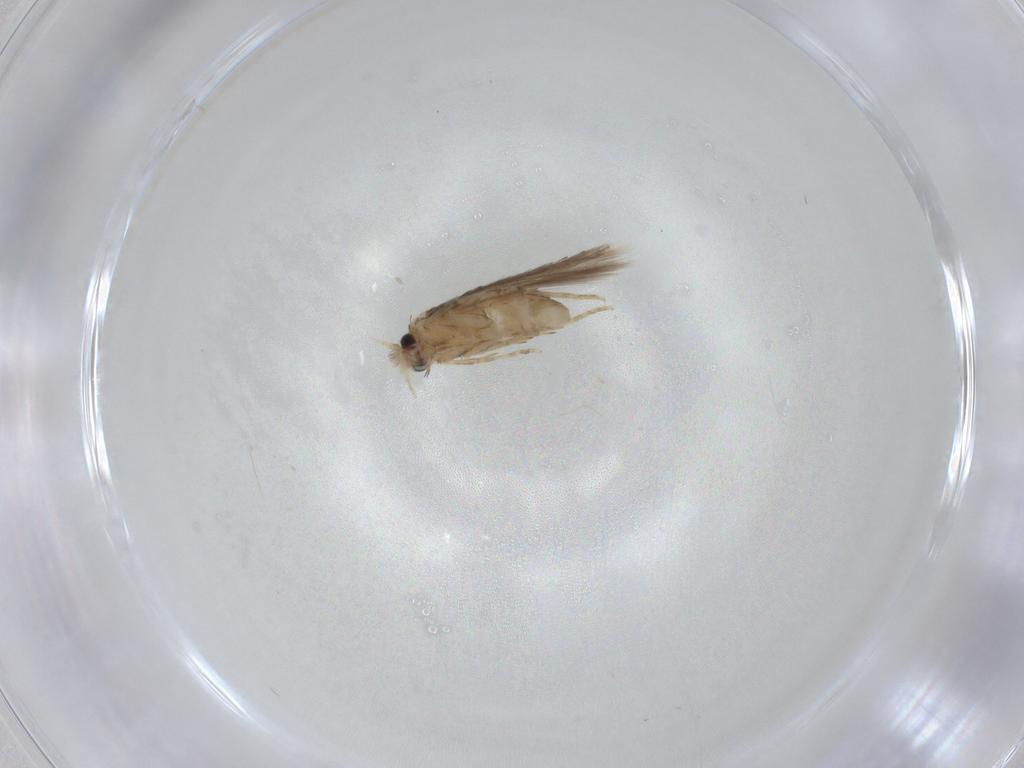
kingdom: Animalia
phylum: Arthropoda
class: Insecta
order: Lepidoptera
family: Nepticulidae
